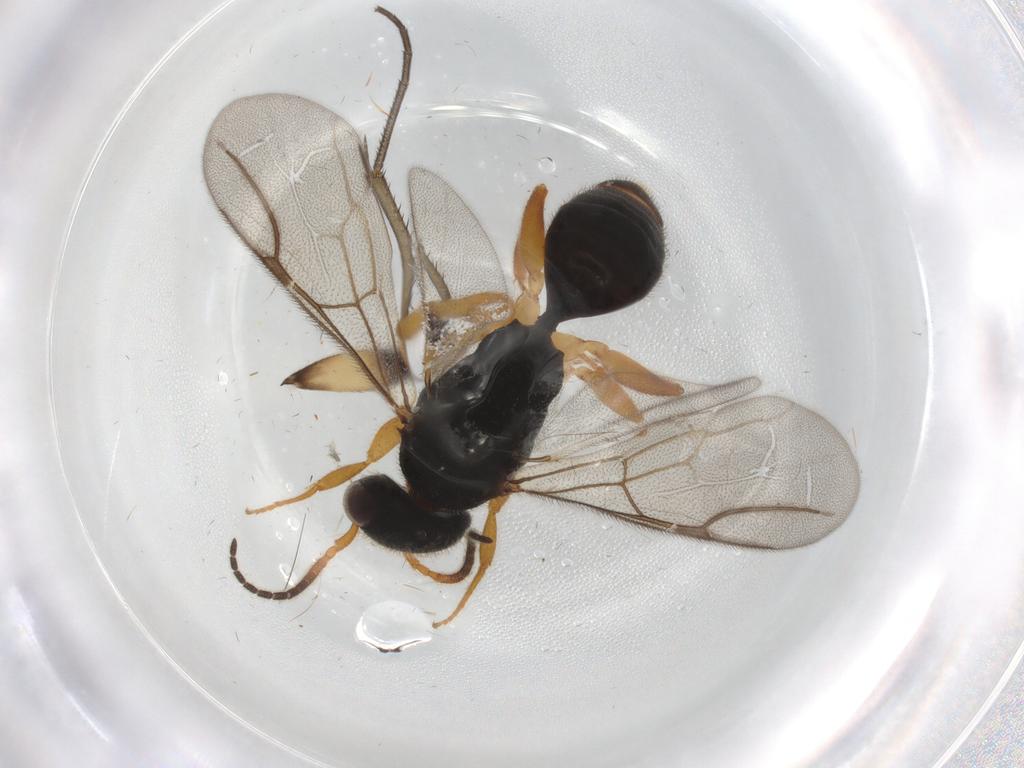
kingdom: Animalia
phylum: Arthropoda
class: Insecta
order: Hymenoptera
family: Bethylidae
